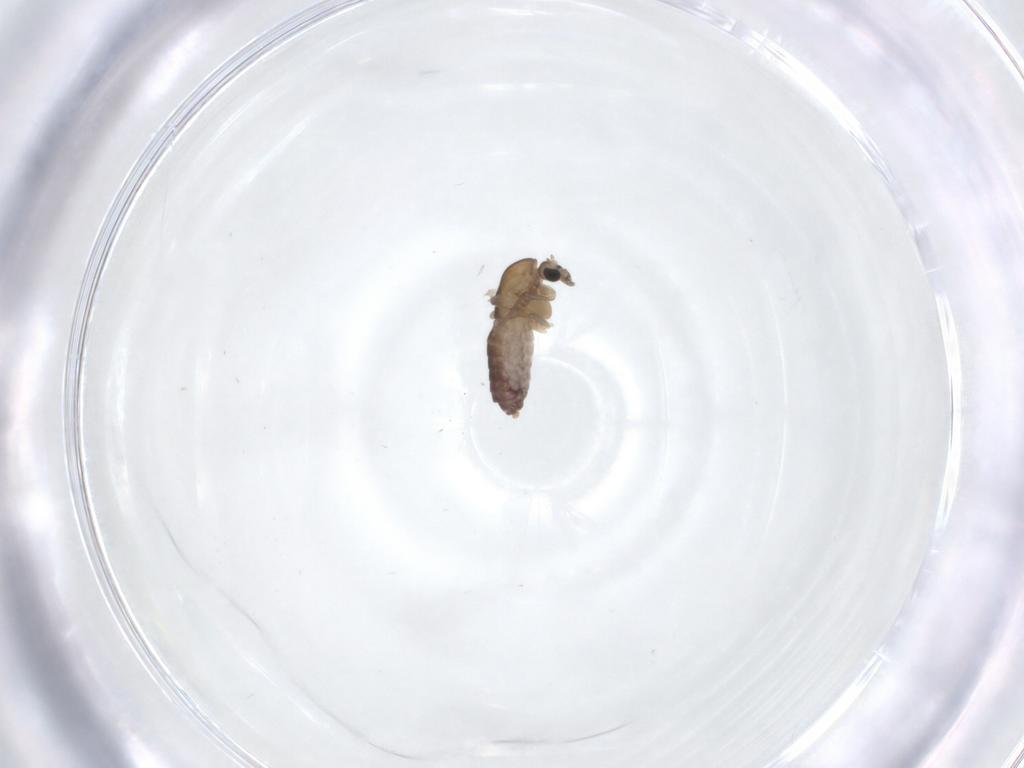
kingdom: Animalia
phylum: Arthropoda
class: Insecta
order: Diptera
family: Chironomidae
